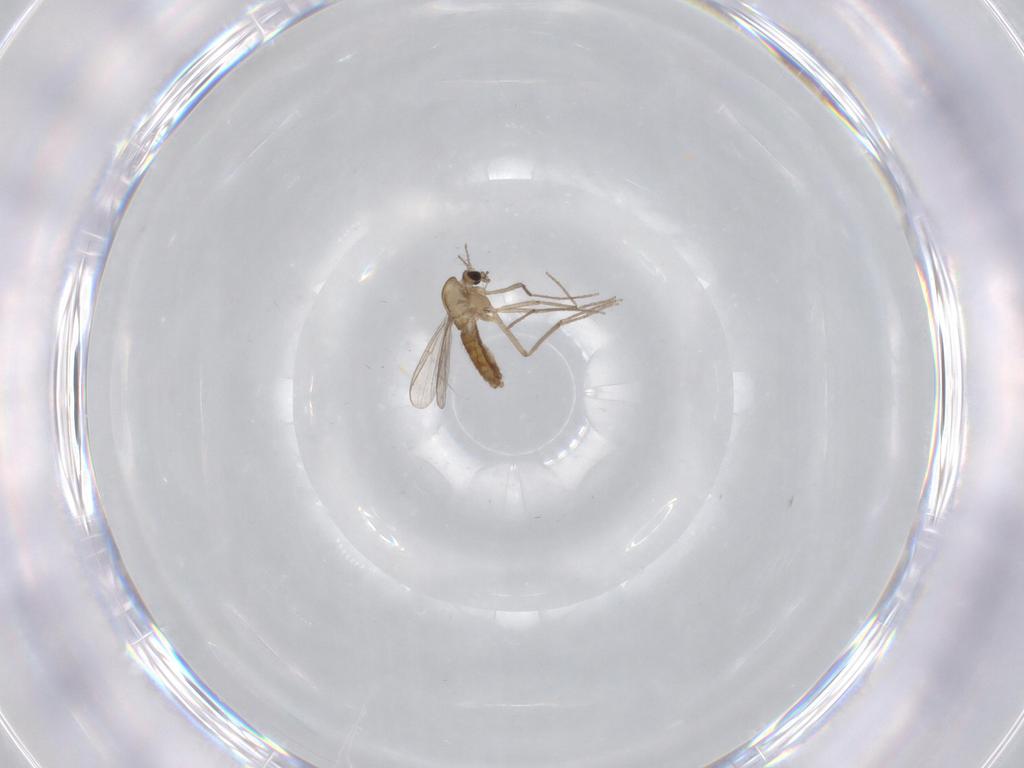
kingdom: Animalia
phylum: Arthropoda
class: Insecta
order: Diptera
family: Chironomidae
